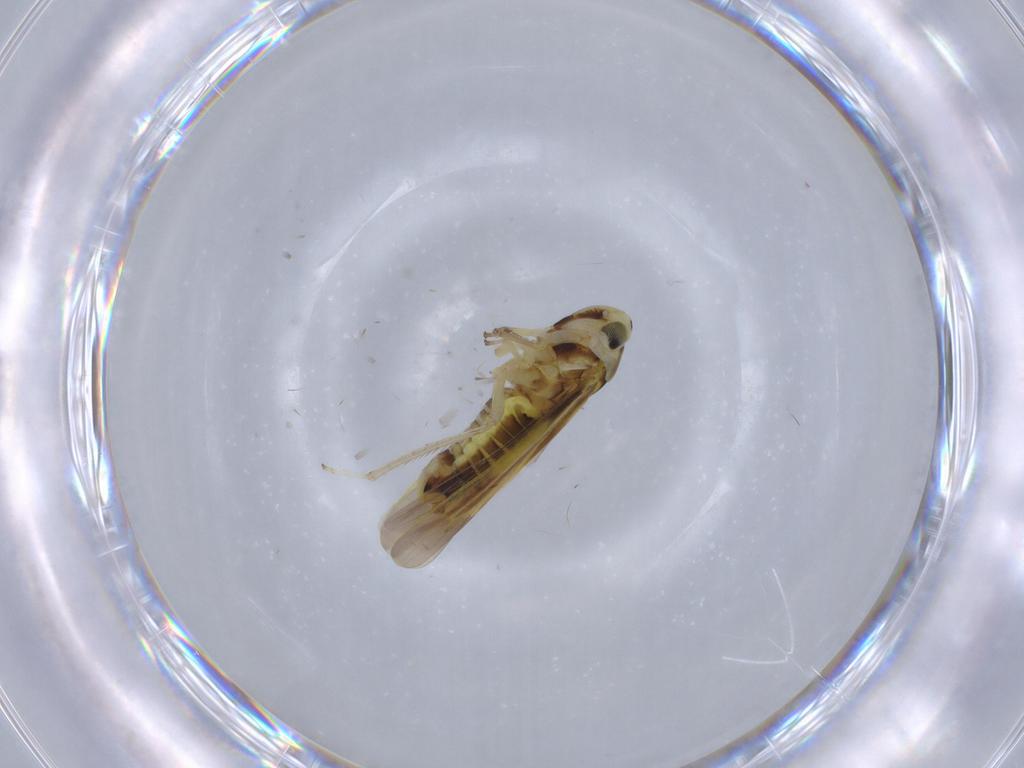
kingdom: Animalia
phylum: Arthropoda
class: Insecta
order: Hemiptera
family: Cicadellidae
